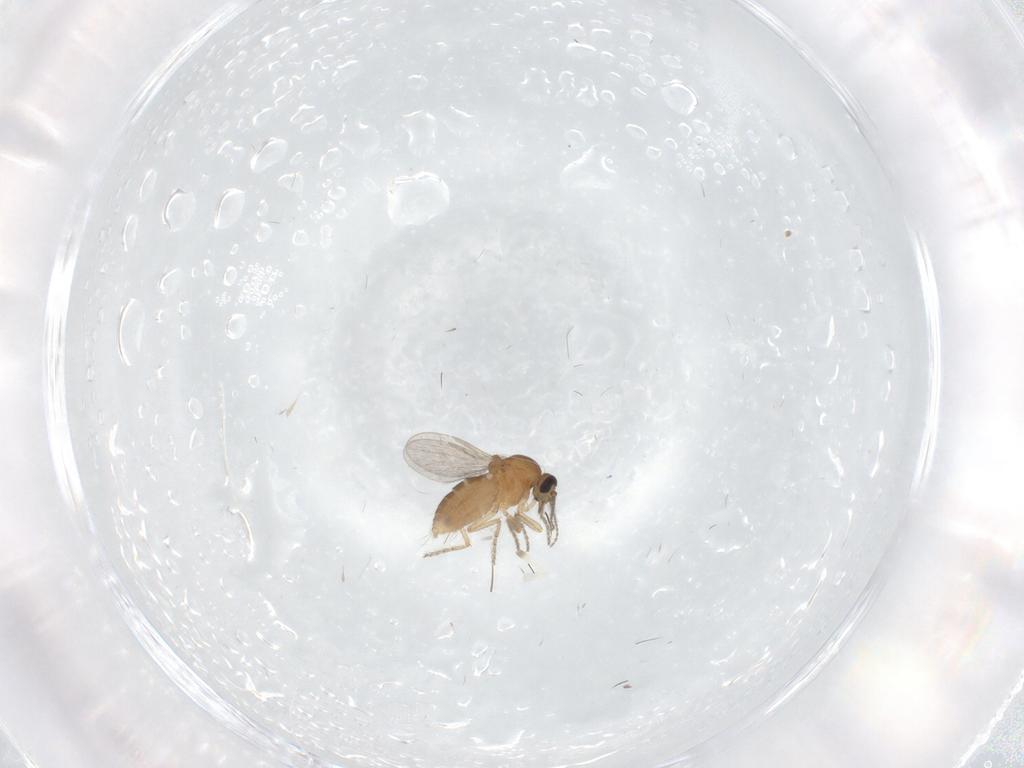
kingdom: Animalia
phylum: Arthropoda
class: Insecta
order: Diptera
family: Ceratopogonidae
